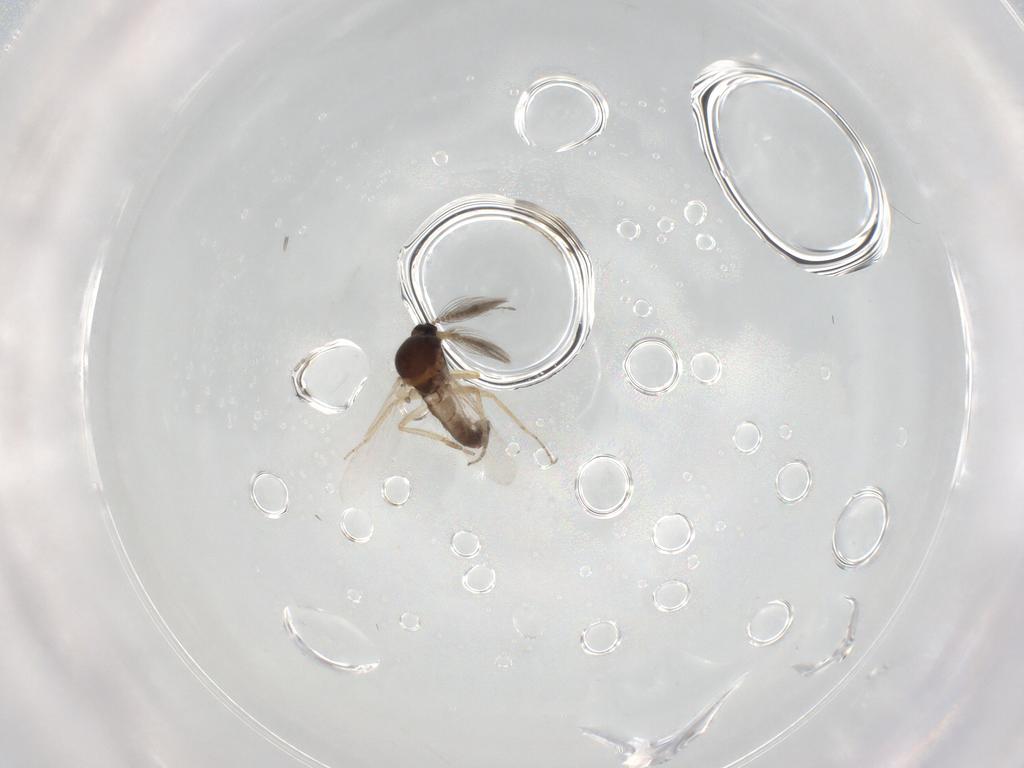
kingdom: Animalia
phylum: Arthropoda
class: Insecta
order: Diptera
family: Ceratopogonidae
